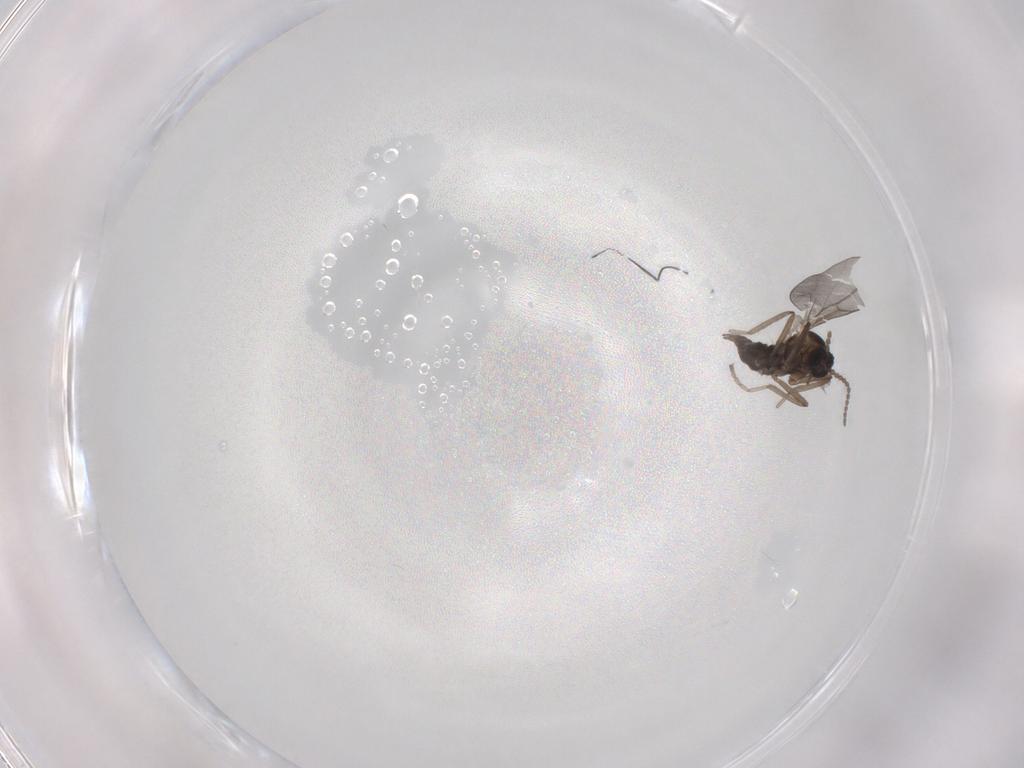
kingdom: Animalia
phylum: Arthropoda
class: Insecta
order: Diptera
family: Cecidomyiidae
